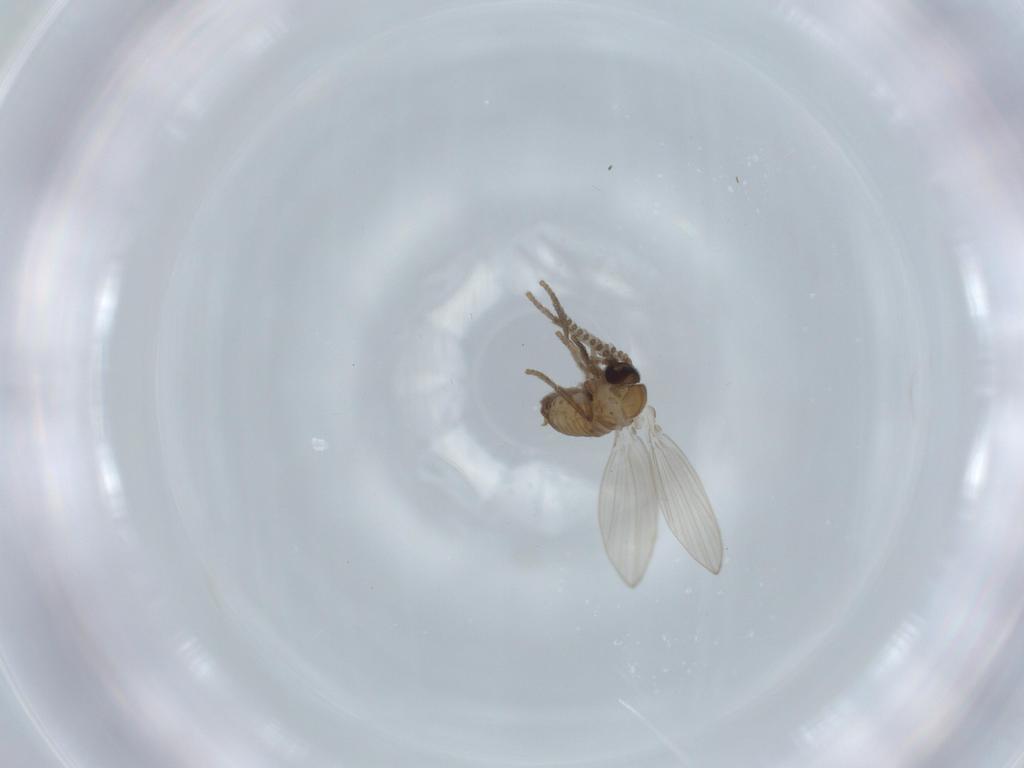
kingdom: Animalia
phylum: Arthropoda
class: Insecta
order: Diptera
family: Psychodidae
